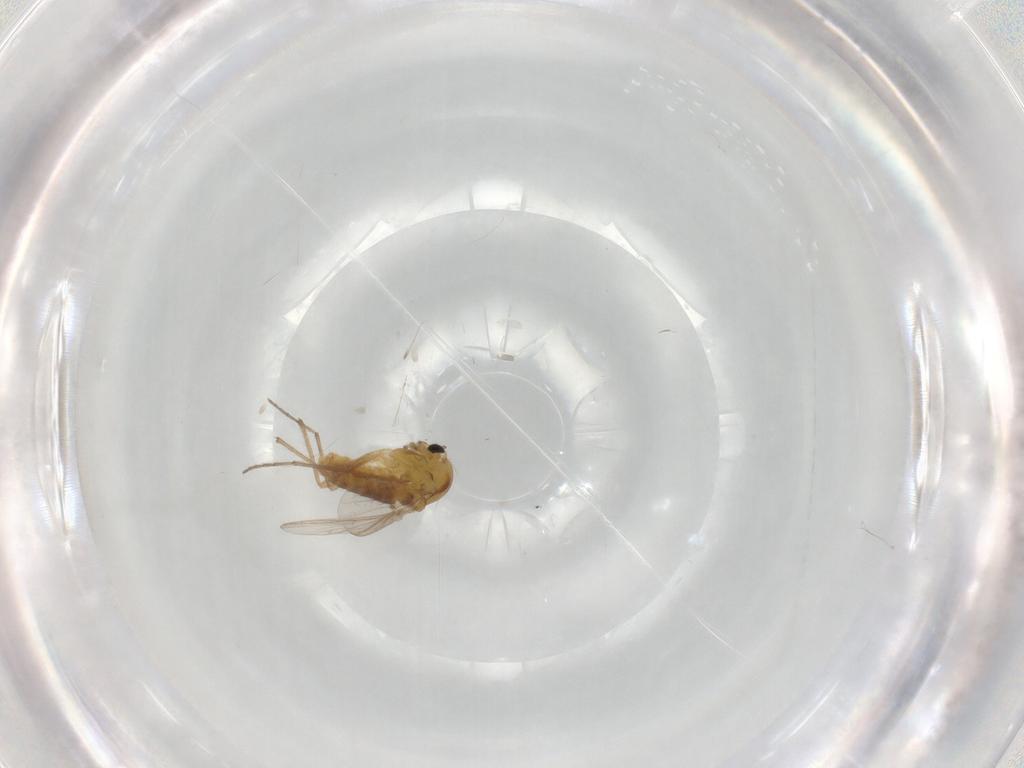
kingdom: Animalia
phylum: Arthropoda
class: Insecta
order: Diptera
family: Chironomidae
